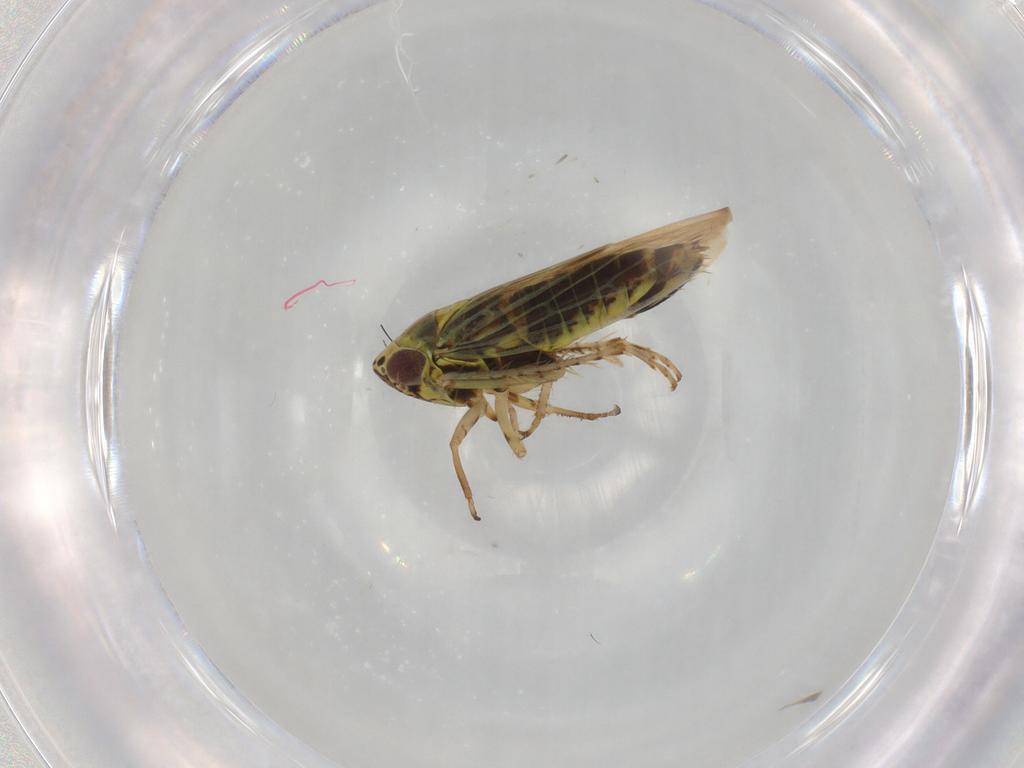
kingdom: Animalia
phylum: Arthropoda
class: Insecta
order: Hemiptera
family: Cicadellidae
